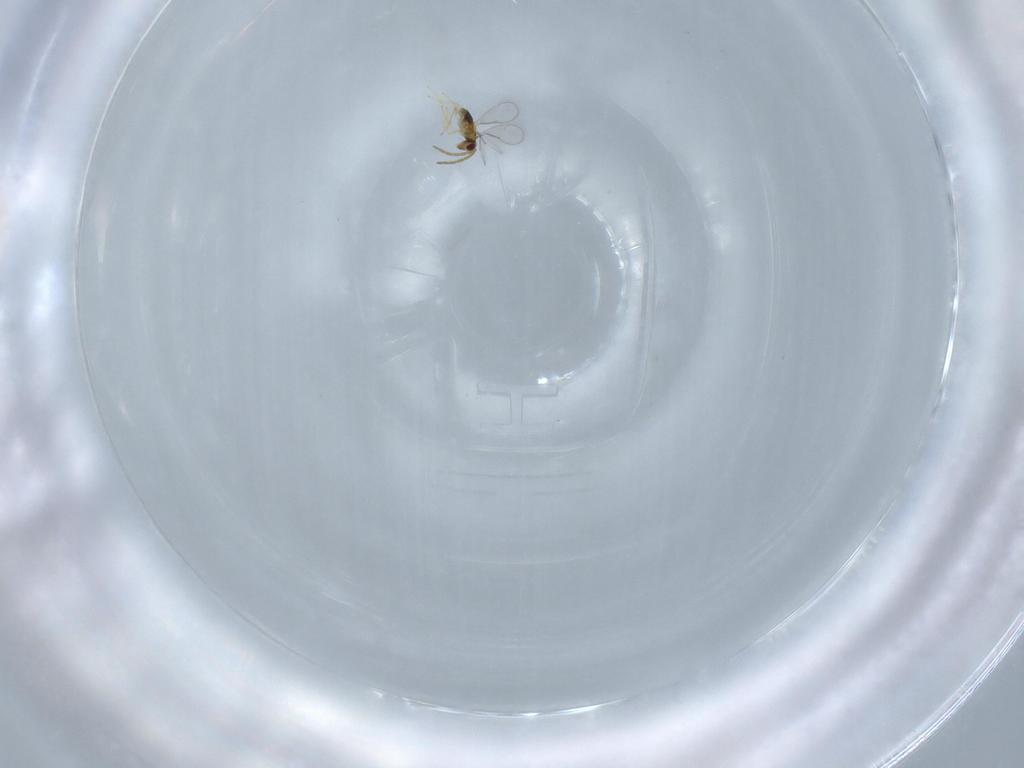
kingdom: Animalia
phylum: Arthropoda
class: Insecta
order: Hymenoptera
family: Aphelinidae
